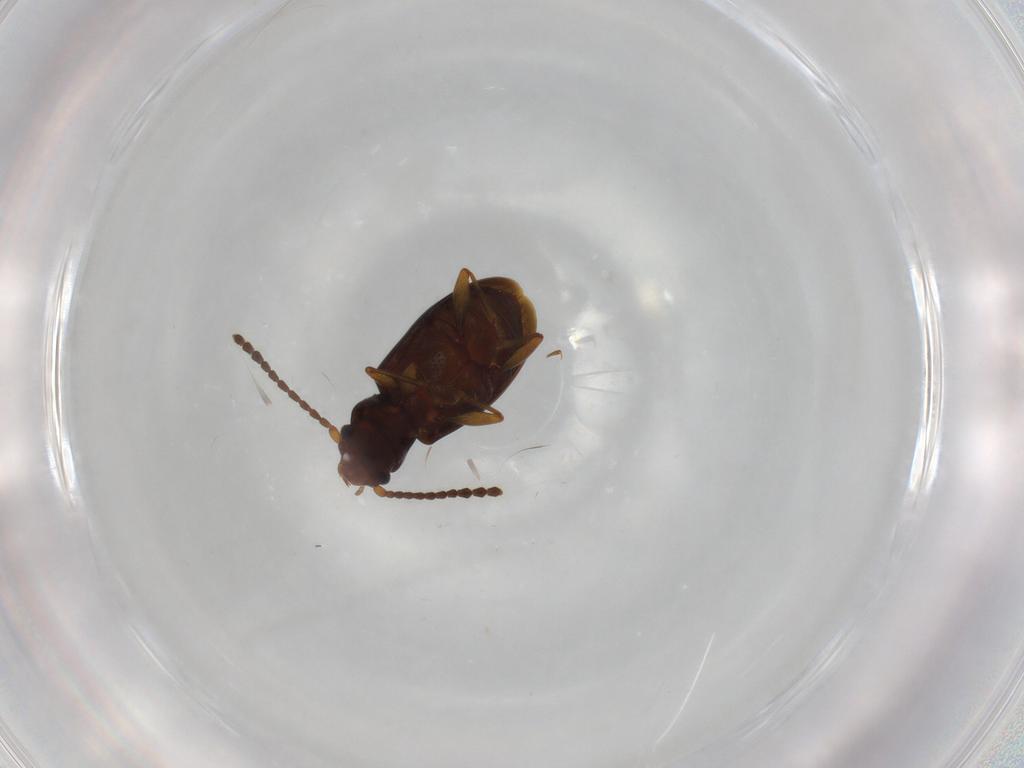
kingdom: Animalia
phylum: Arthropoda
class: Insecta
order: Coleoptera
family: Laemophloeidae
